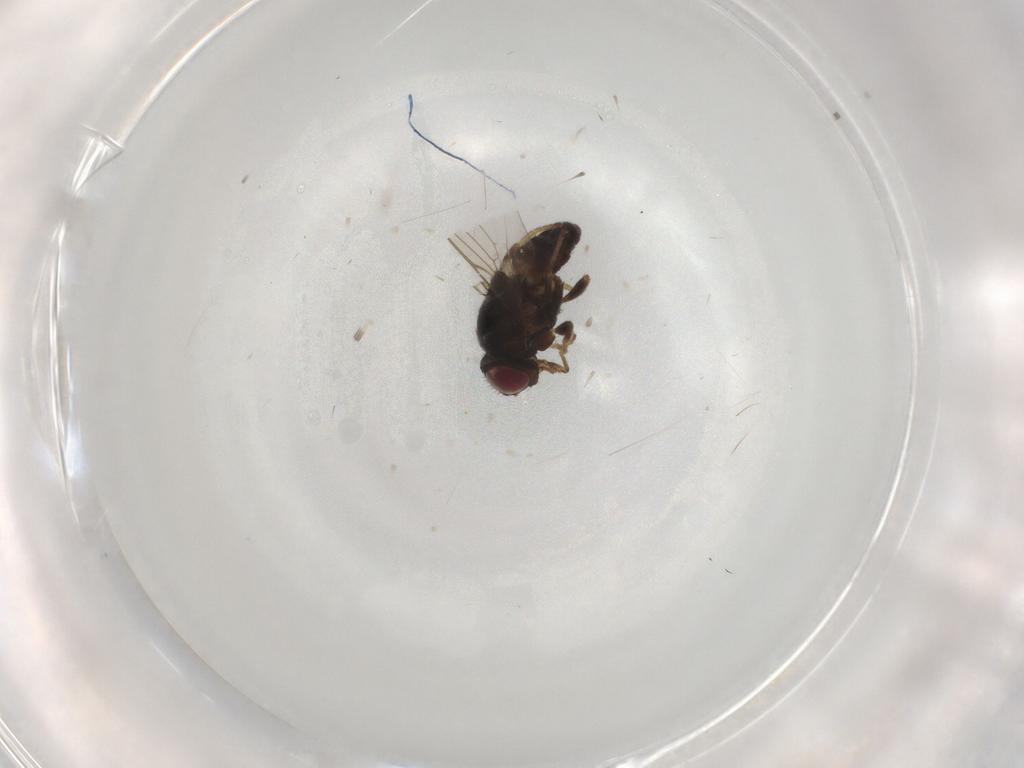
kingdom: Animalia
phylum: Arthropoda
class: Insecta
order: Diptera
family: Chloropidae
